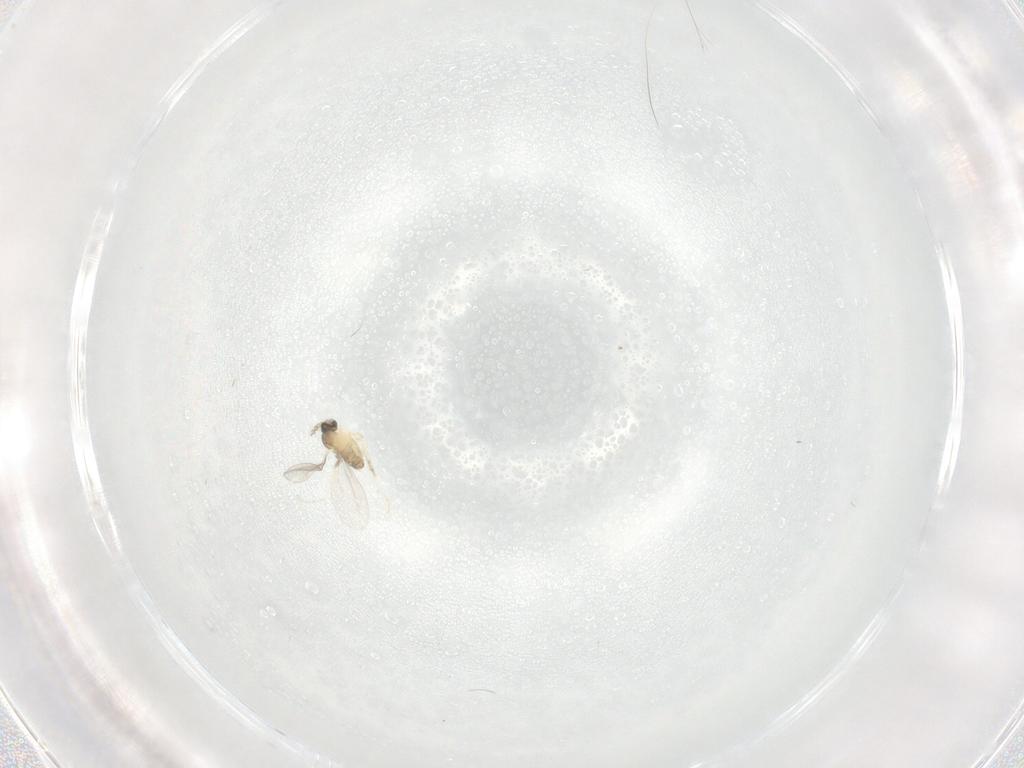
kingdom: Animalia
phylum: Arthropoda
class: Insecta
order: Diptera
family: Cecidomyiidae
